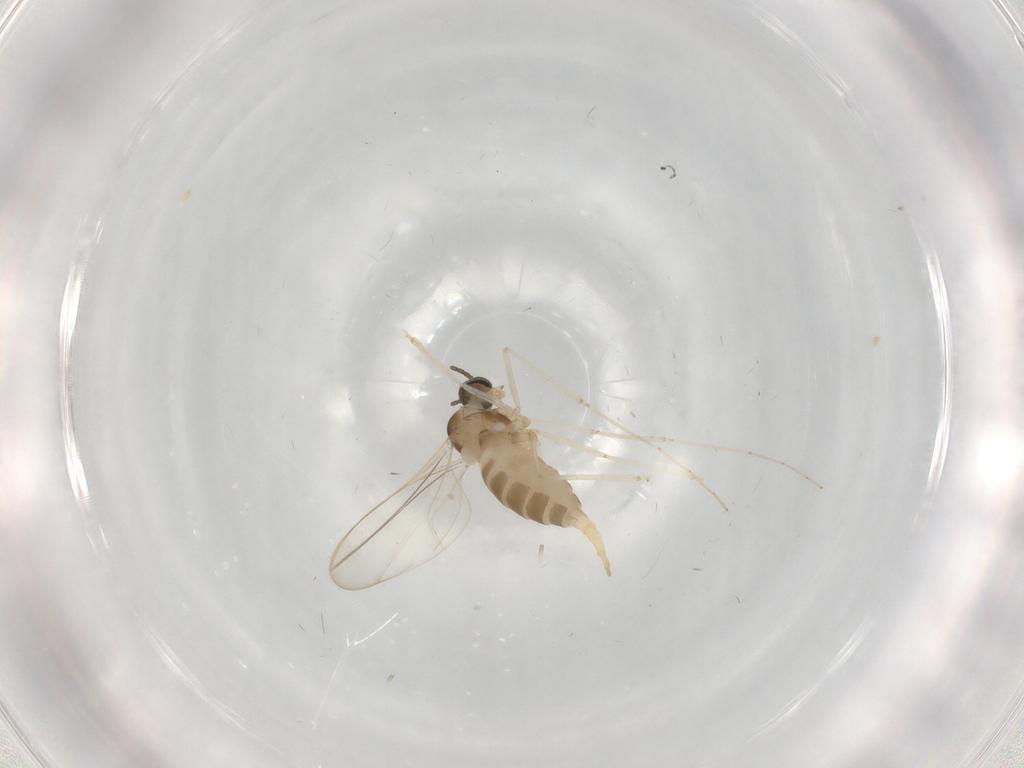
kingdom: Animalia
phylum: Arthropoda
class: Insecta
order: Diptera
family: Cecidomyiidae
